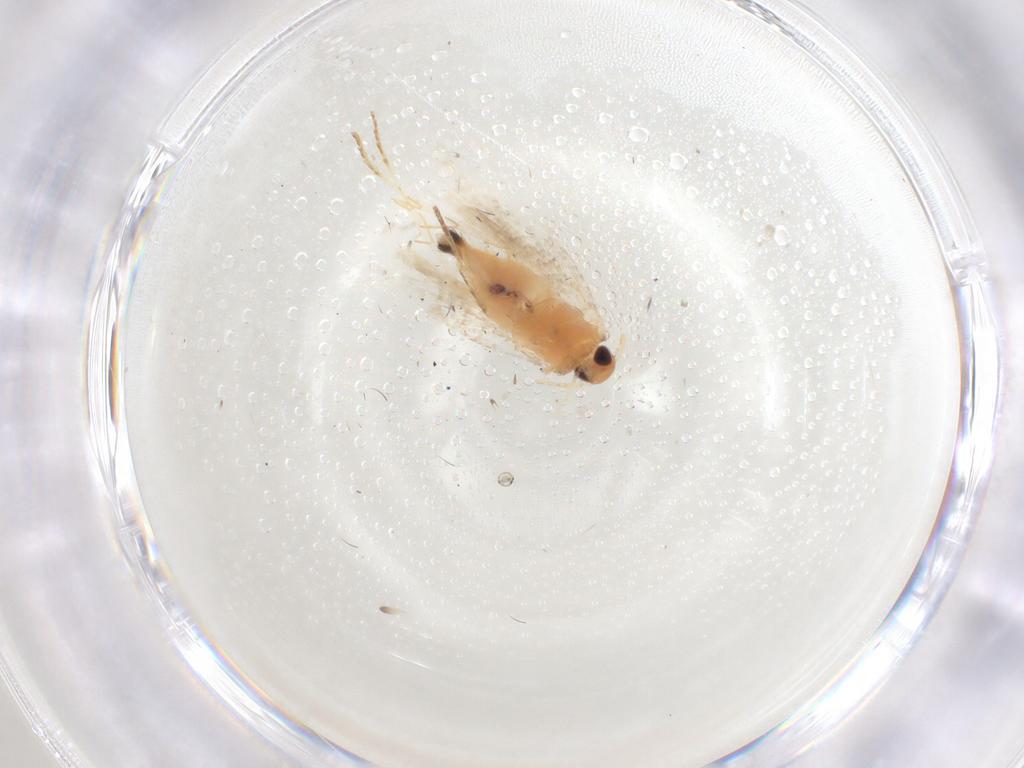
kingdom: Animalia
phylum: Arthropoda
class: Insecta
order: Lepidoptera
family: Gelechiidae
